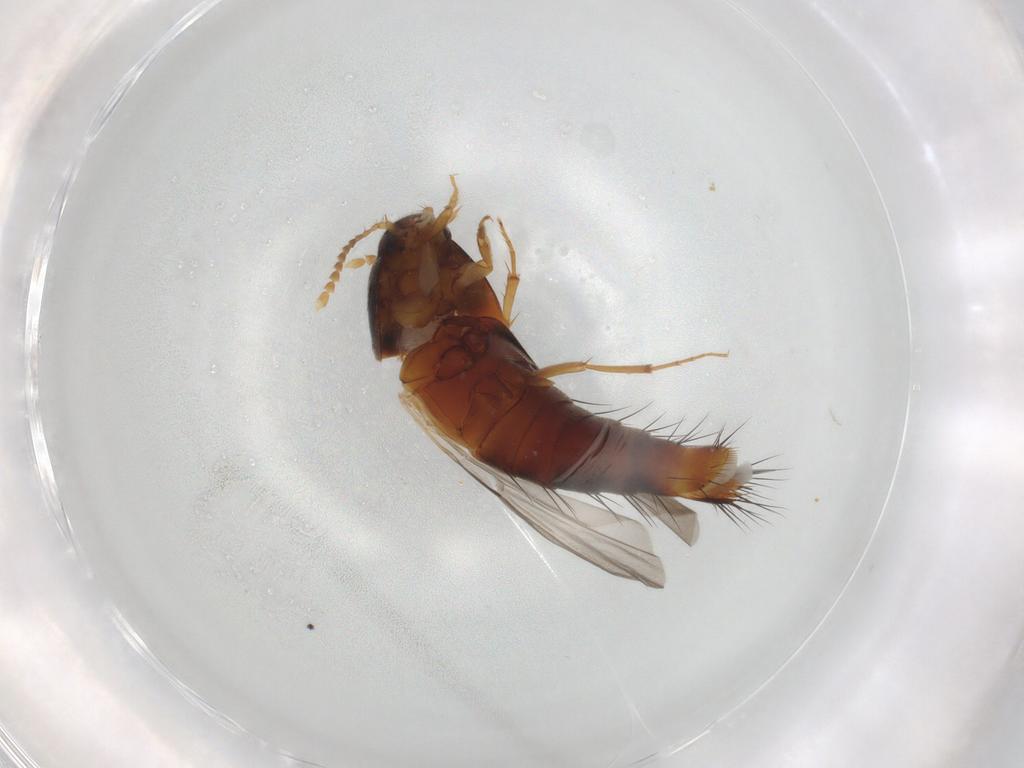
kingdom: Animalia
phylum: Arthropoda
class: Insecta
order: Coleoptera
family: Staphylinidae
